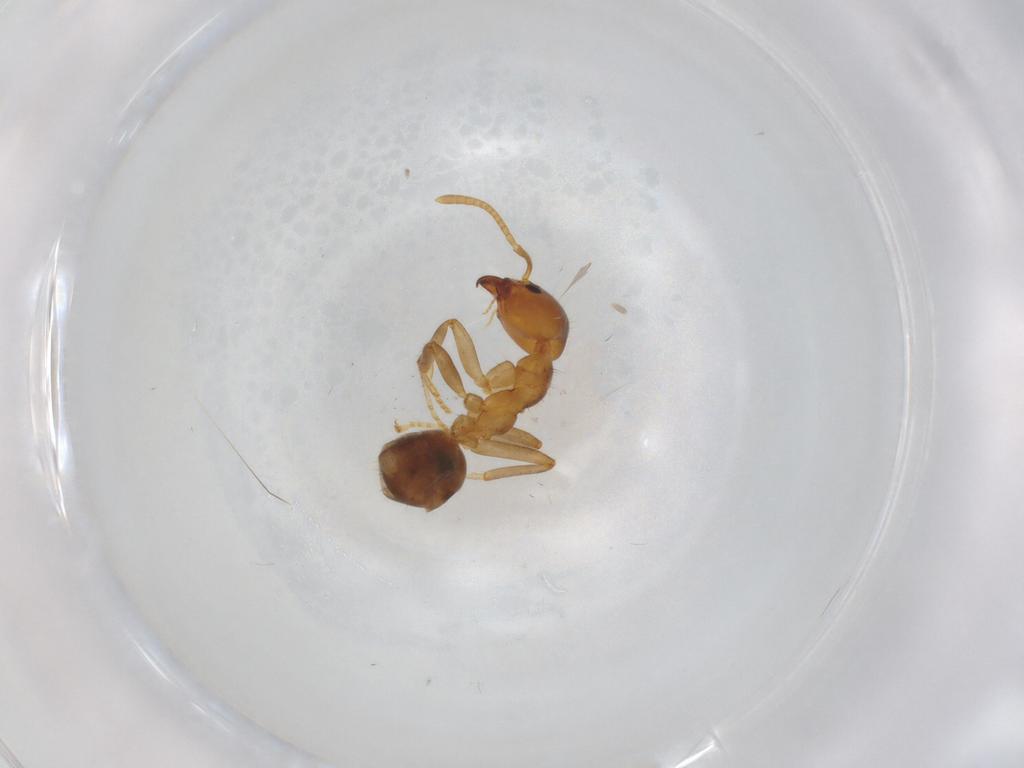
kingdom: Animalia
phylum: Arthropoda
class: Insecta
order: Hymenoptera
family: Formicidae
